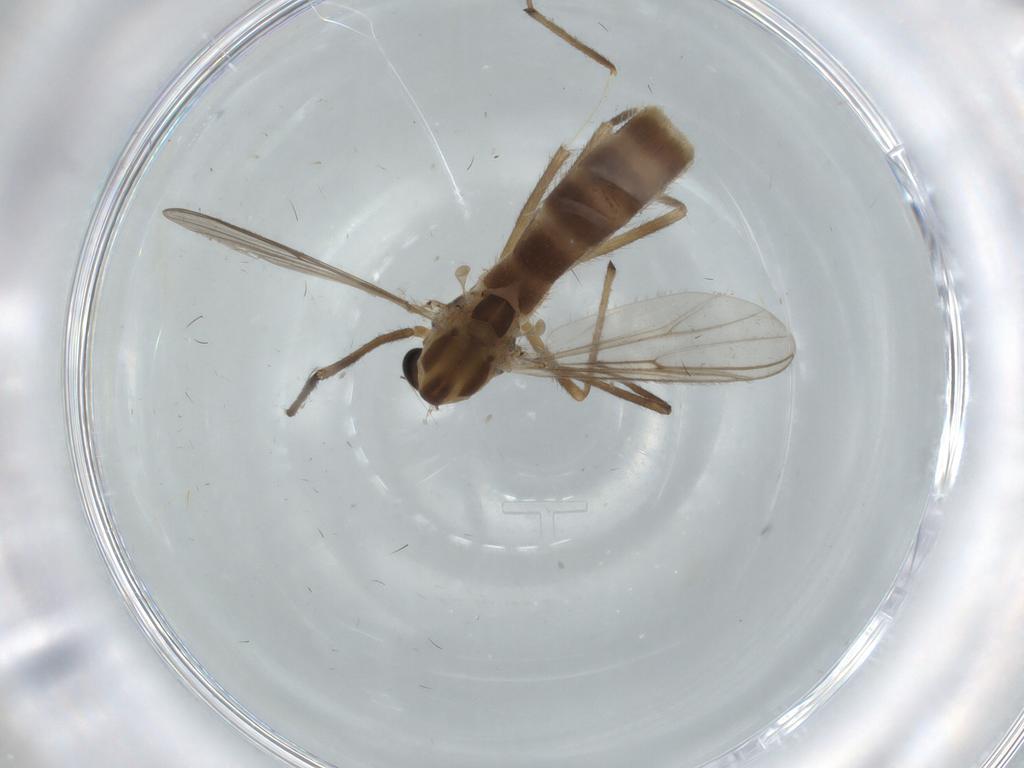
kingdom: Animalia
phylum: Arthropoda
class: Insecta
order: Diptera
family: Chironomidae
